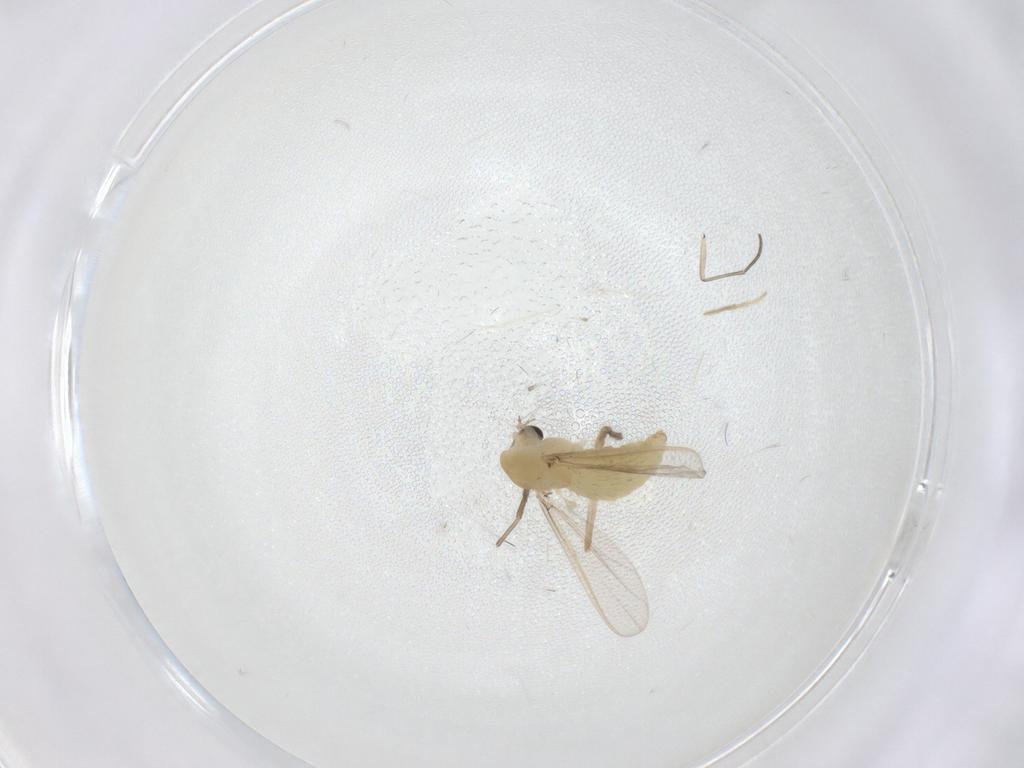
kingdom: Animalia
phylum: Arthropoda
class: Insecta
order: Diptera
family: Chironomidae
